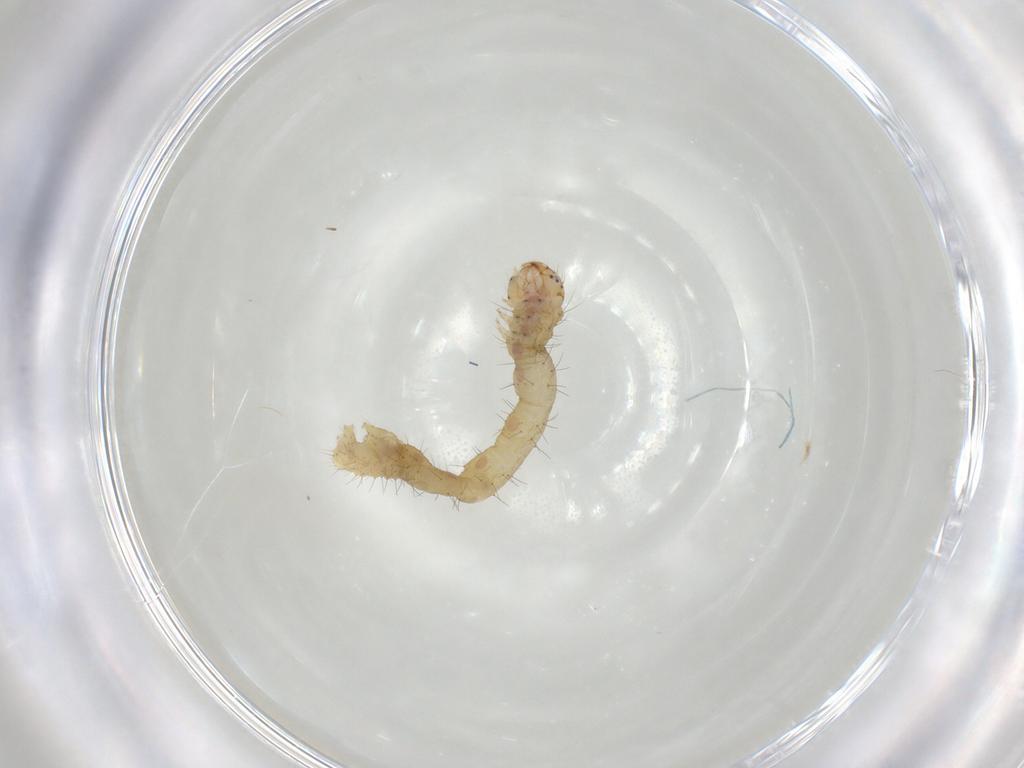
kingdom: Animalia
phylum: Arthropoda
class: Insecta
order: Lepidoptera
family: Geometridae
